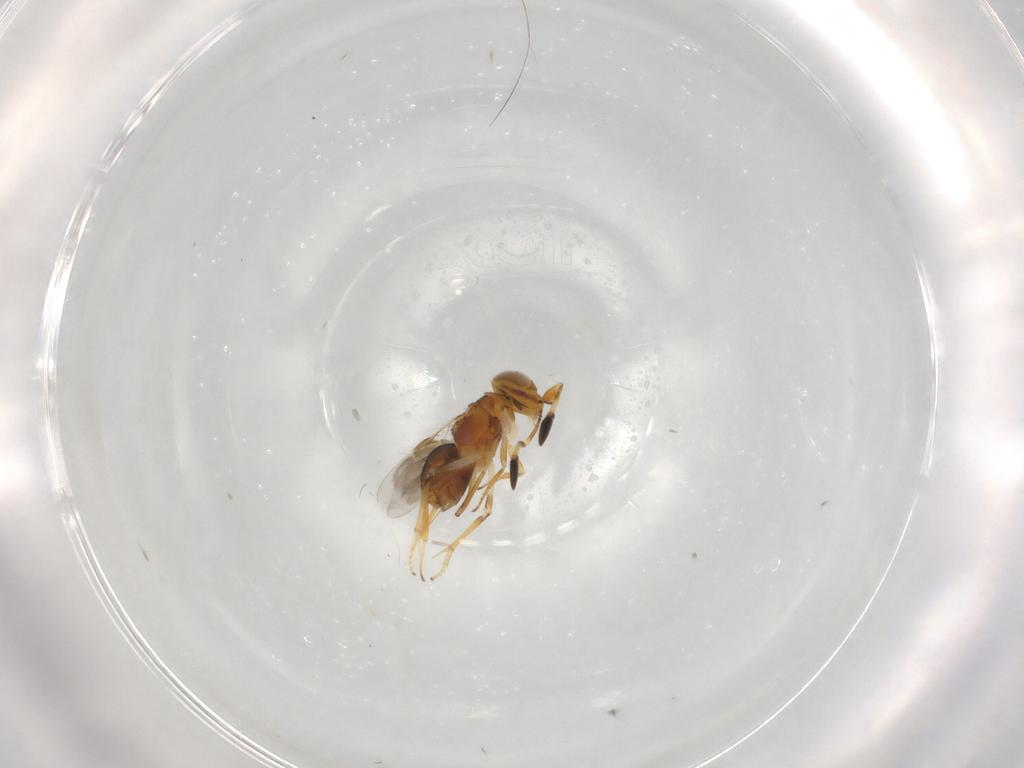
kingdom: Animalia
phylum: Arthropoda
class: Insecta
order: Hymenoptera
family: Encyrtidae
